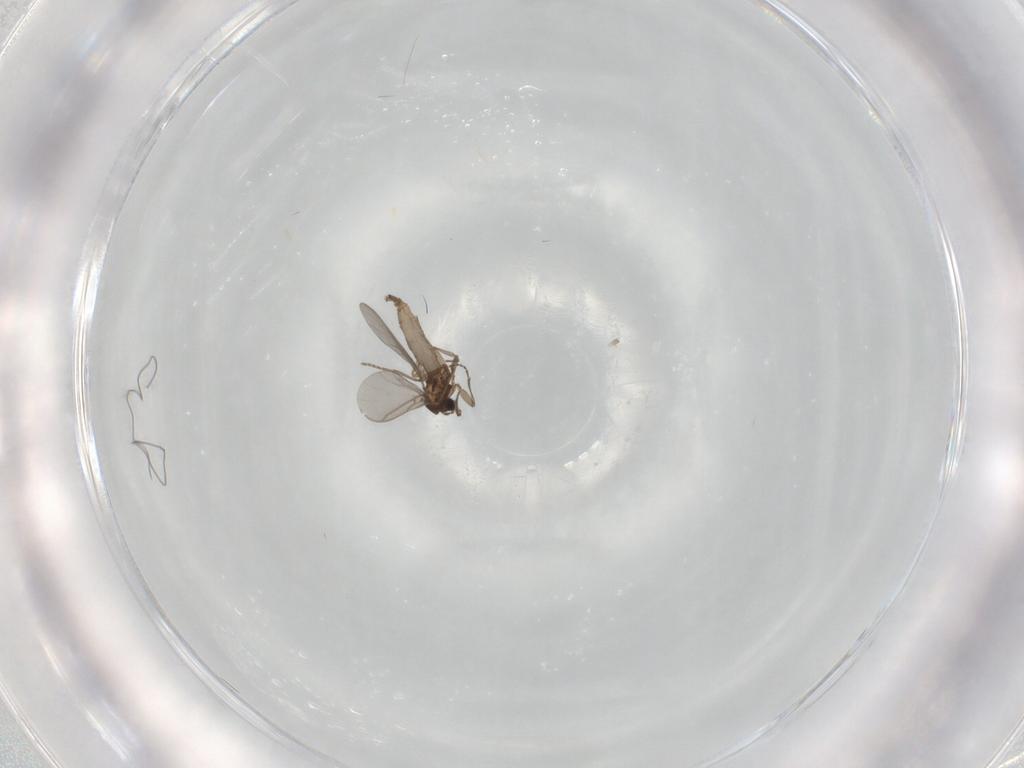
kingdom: Animalia
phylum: Arthropoda
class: Insecta
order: Diptera
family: Sciaridae
